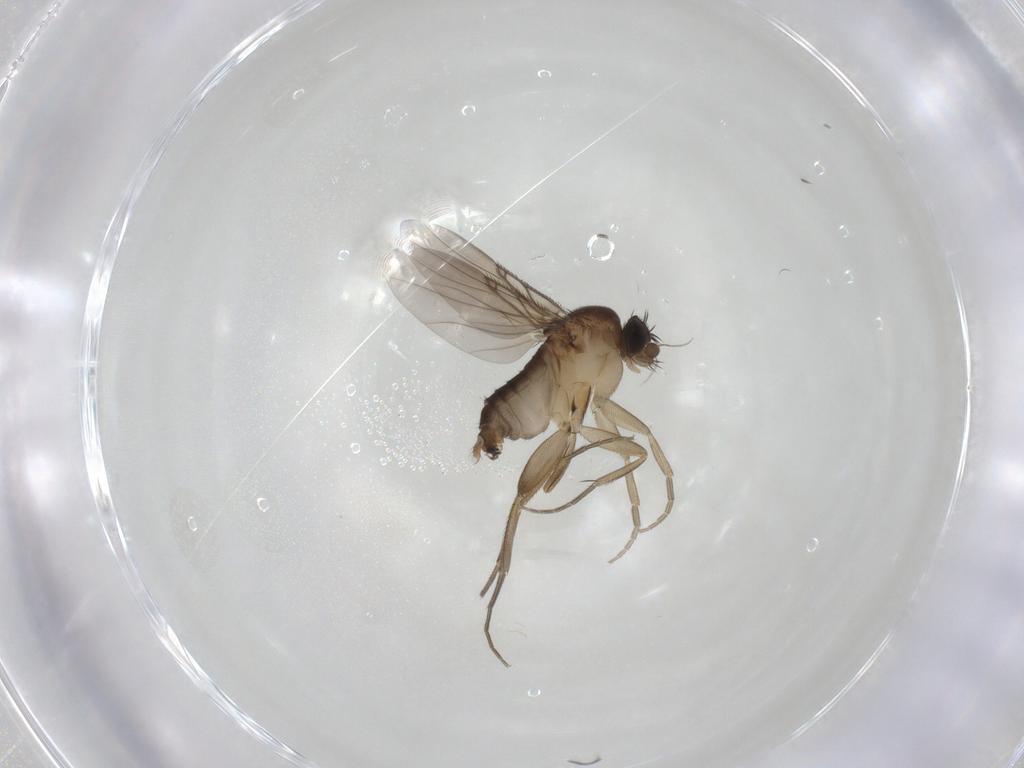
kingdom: Animalia
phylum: Arthropoda
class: Insecta
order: Diptera
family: Phoridae
